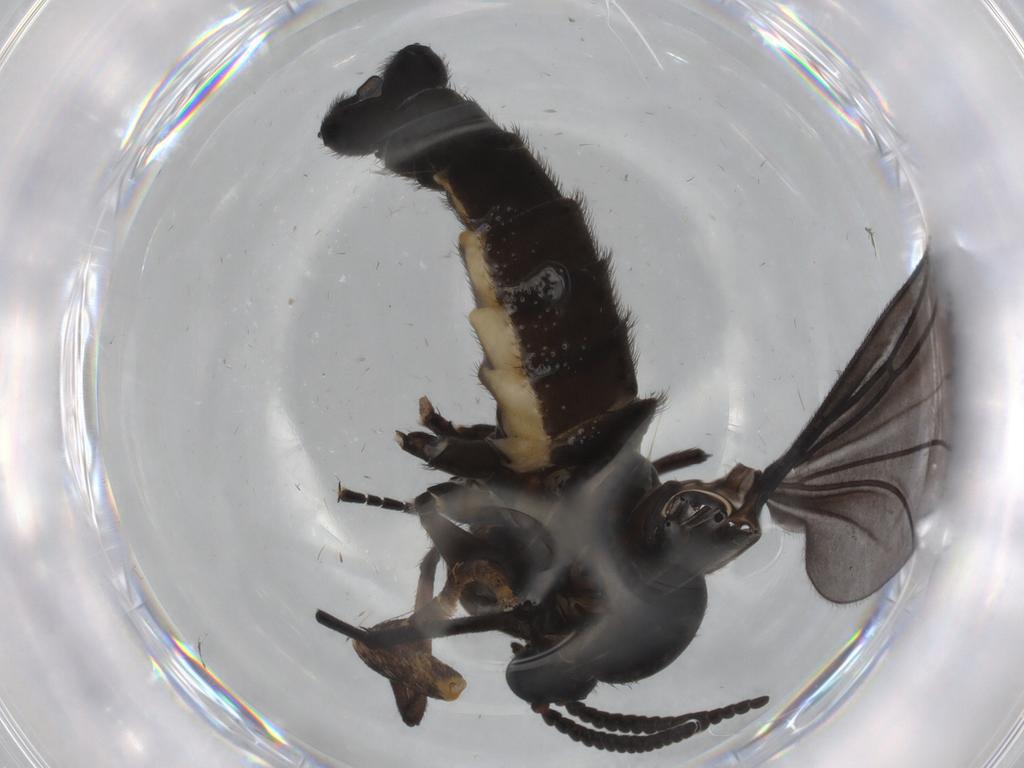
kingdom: Animalia
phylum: Arthropoda
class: Insecta
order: Diptera
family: Sciaridae
